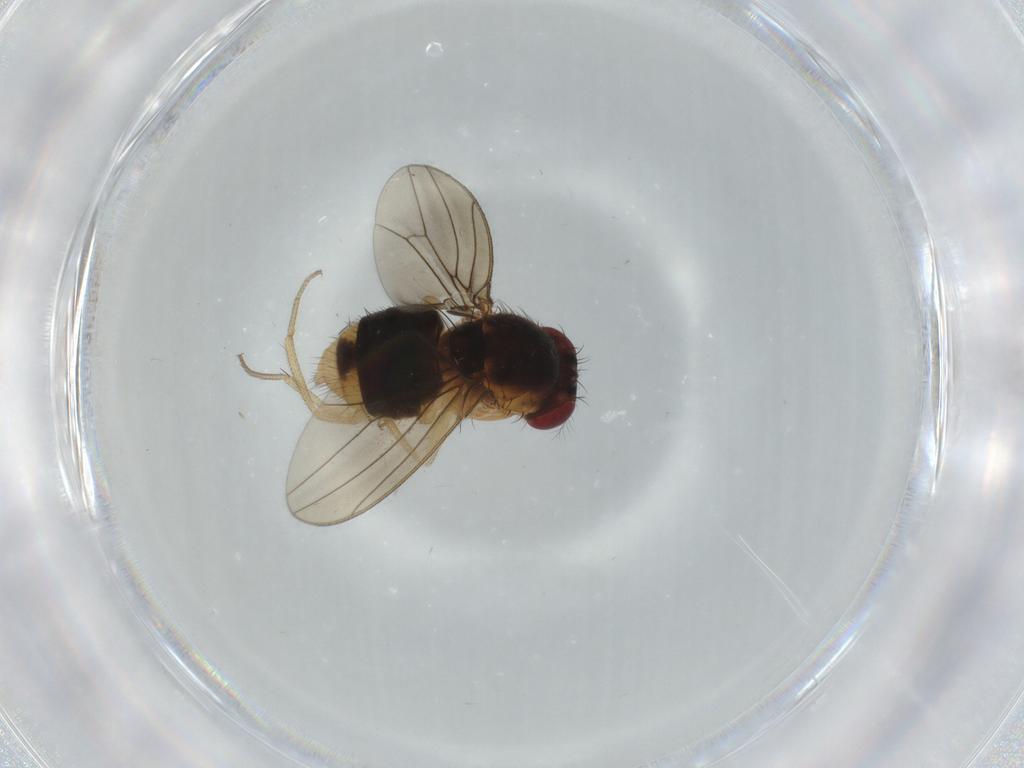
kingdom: Animalia
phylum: Arthropoda
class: Insecta
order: Diptera
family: Drosophilidae
